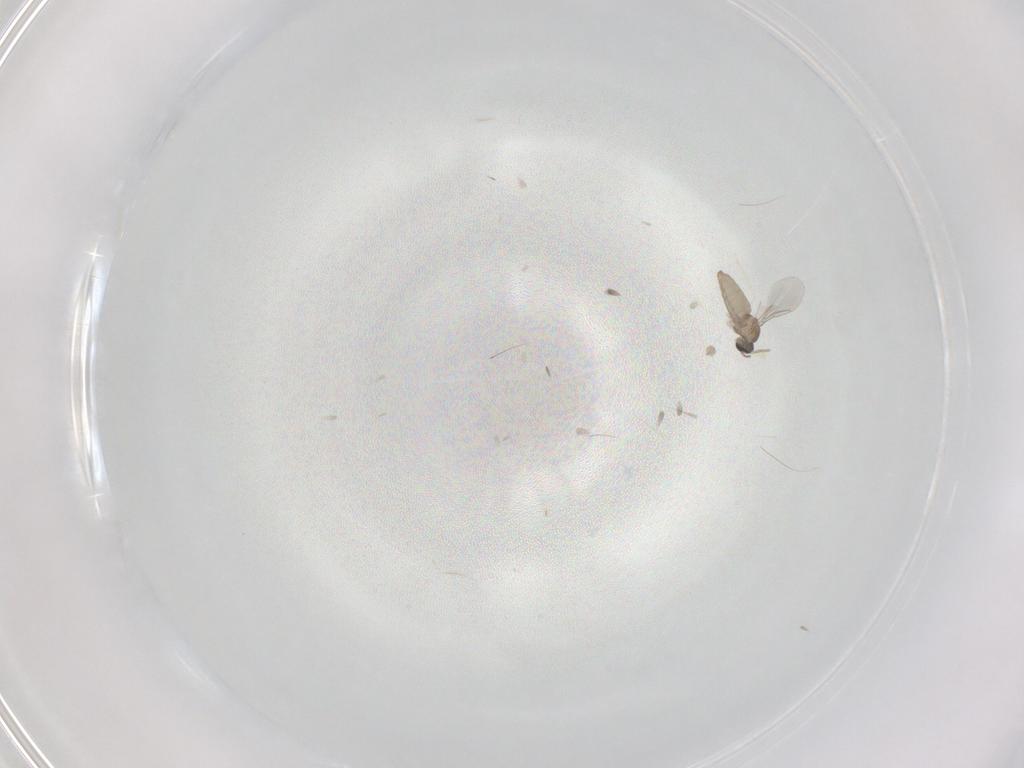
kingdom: Animalia
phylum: Arthropoda
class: Insecta
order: Diptera
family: Cecidomyiidae
